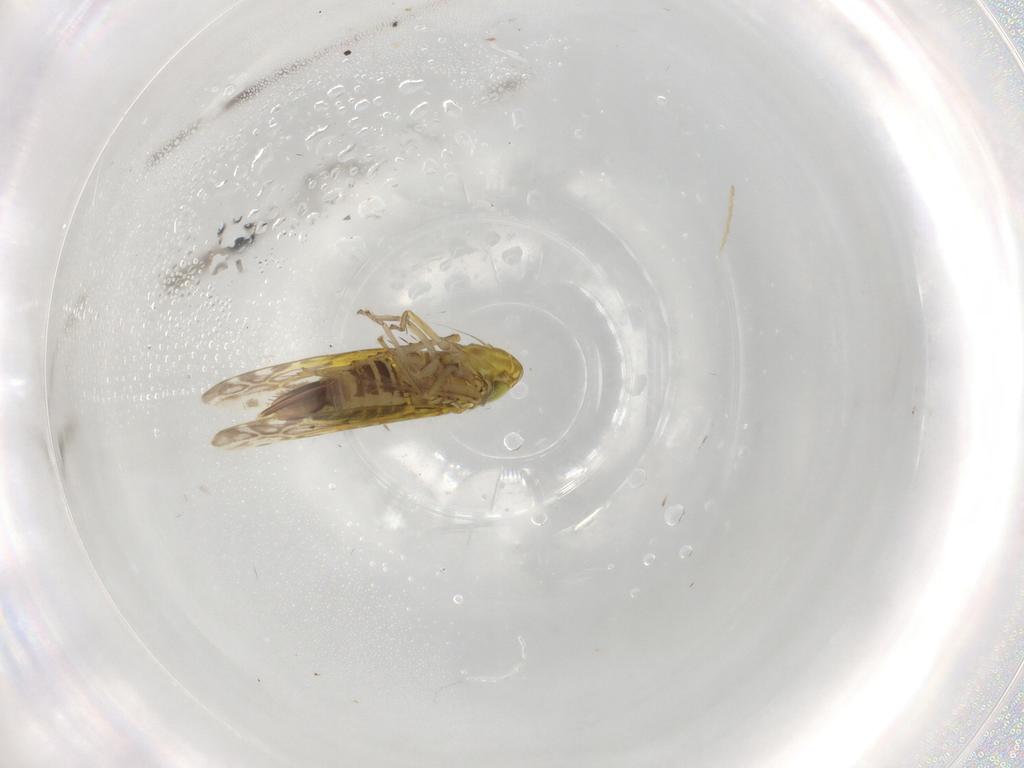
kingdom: Animalia
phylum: Arthropoda
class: Insecta
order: Hemiptera
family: Cicadellidae
